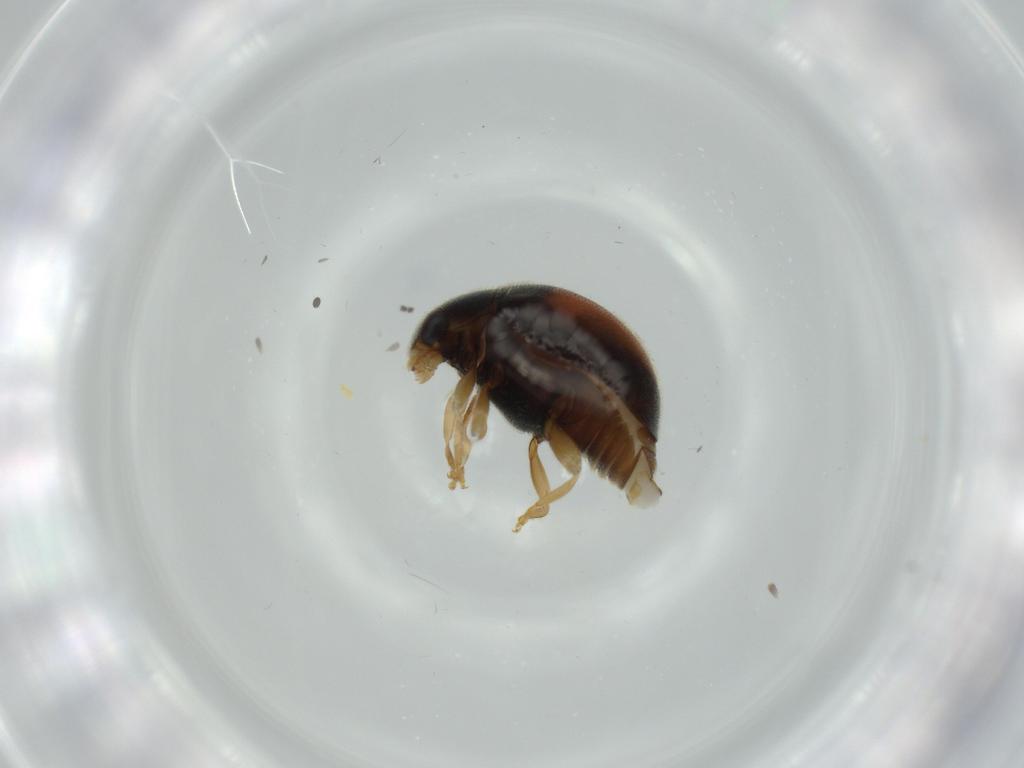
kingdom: Animalia
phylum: Arthropoda
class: Insecta
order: Coleoptera
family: Coccinellidae
